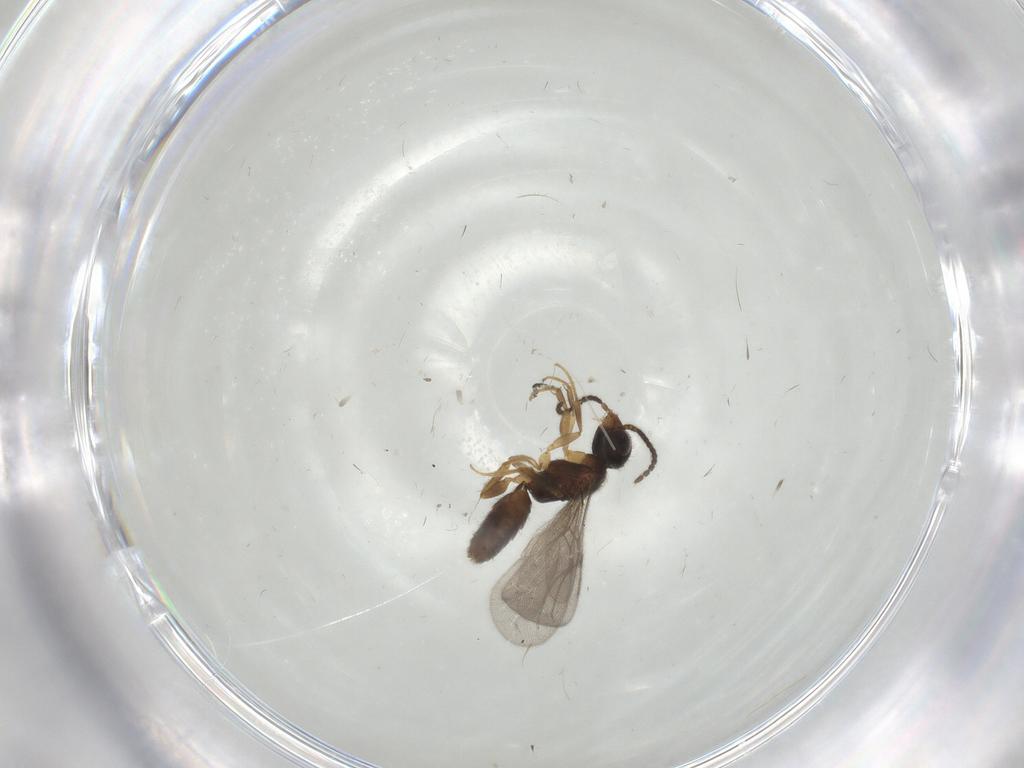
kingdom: Animalia
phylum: Arthropoda
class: Insecta
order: Hymenoptera
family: Bethylidae
